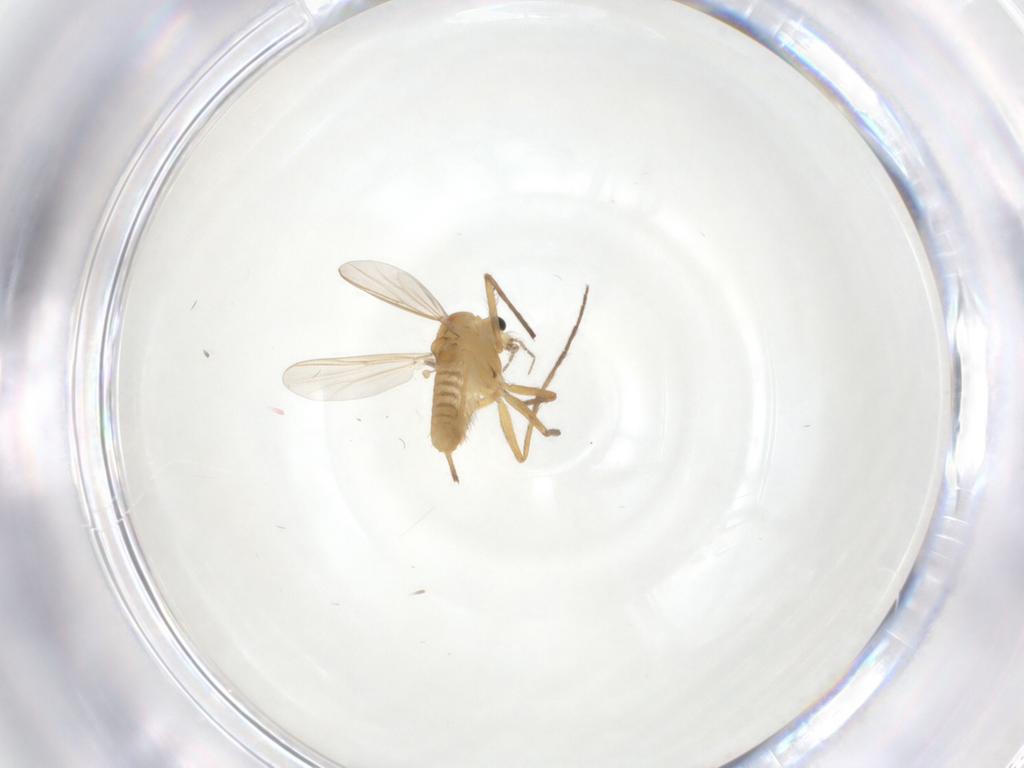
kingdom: Animalia
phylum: Arthropoda
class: Insecta
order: Diptera
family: Chironomidae
